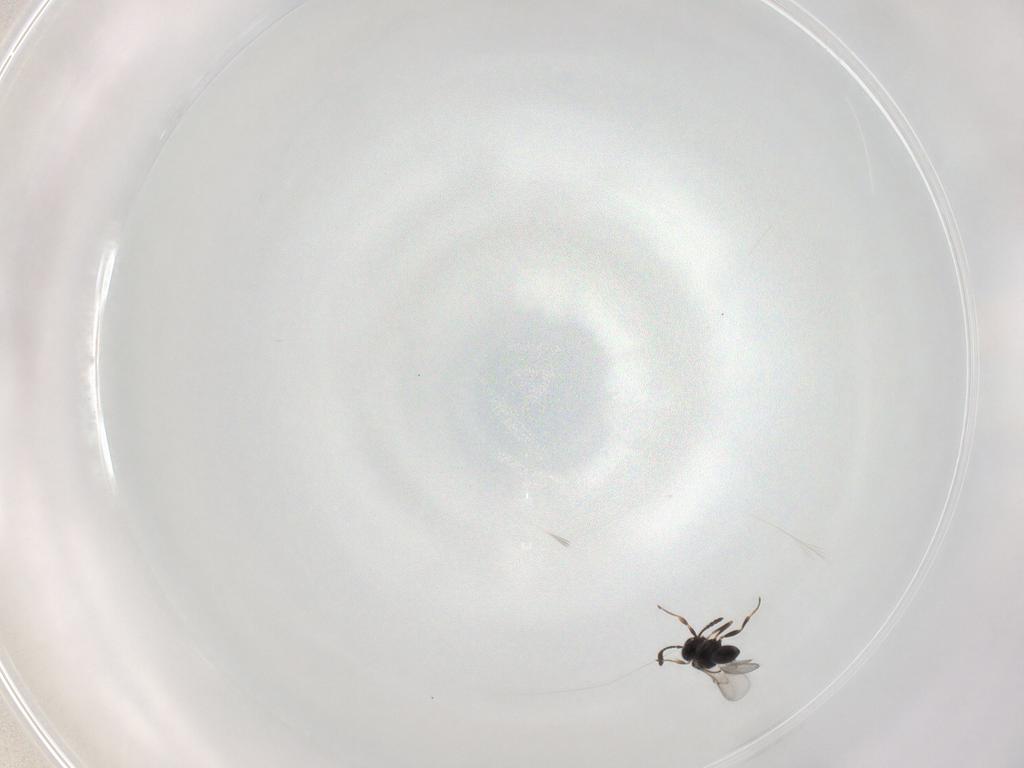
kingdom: Animalia
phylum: Arthropoda
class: Insecta
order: Hymenoptera
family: Scelionidae
